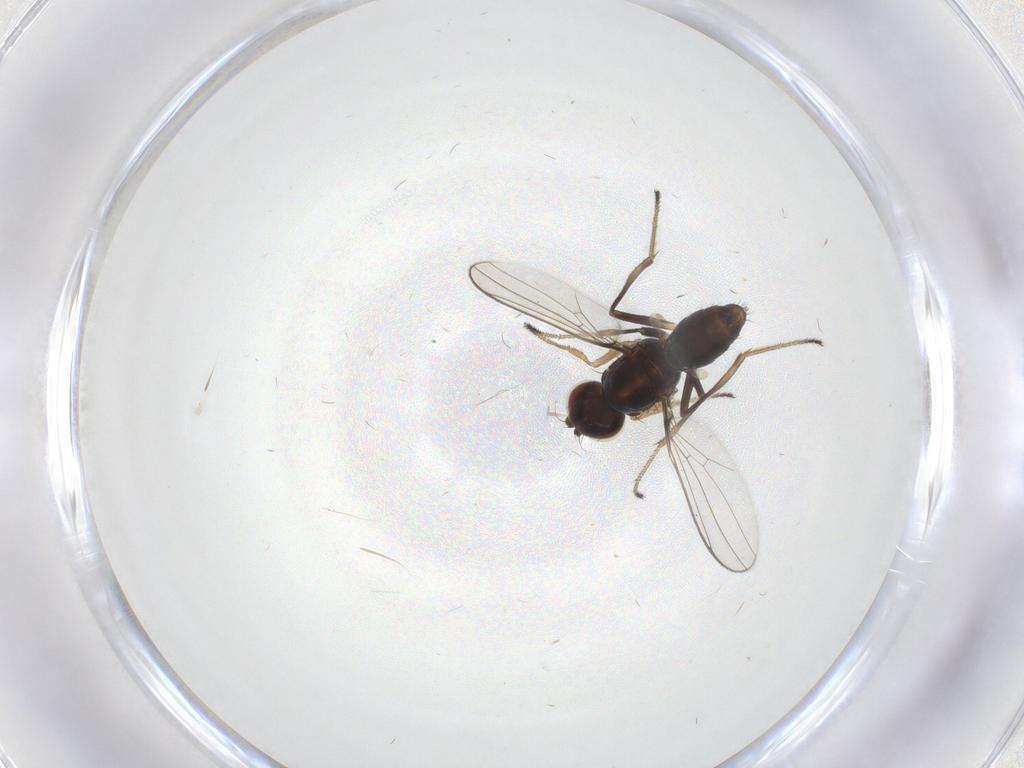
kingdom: Animalia
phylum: Arthropoda
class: Insecta
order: Diptera
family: Sepsidae
